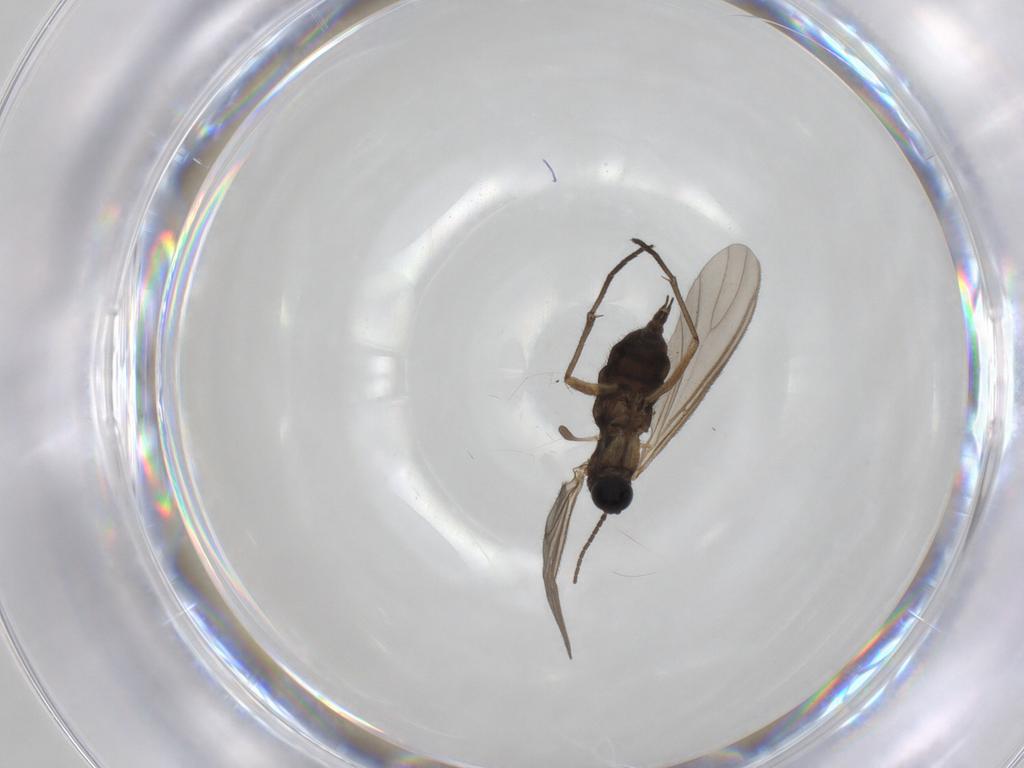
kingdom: Animalia
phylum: Arthropoda
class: Insecta
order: Diptera
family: Sciaridae
